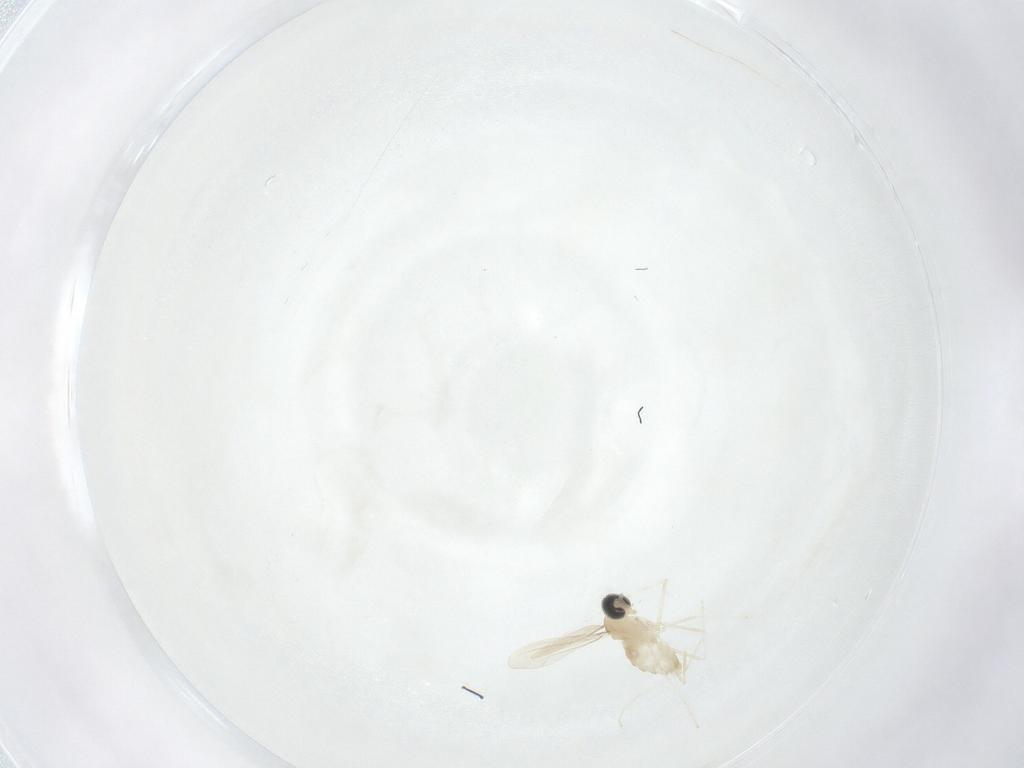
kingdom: Animalia
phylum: Arthropoda
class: Insecta
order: Diptera
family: Cecidomyiidae
